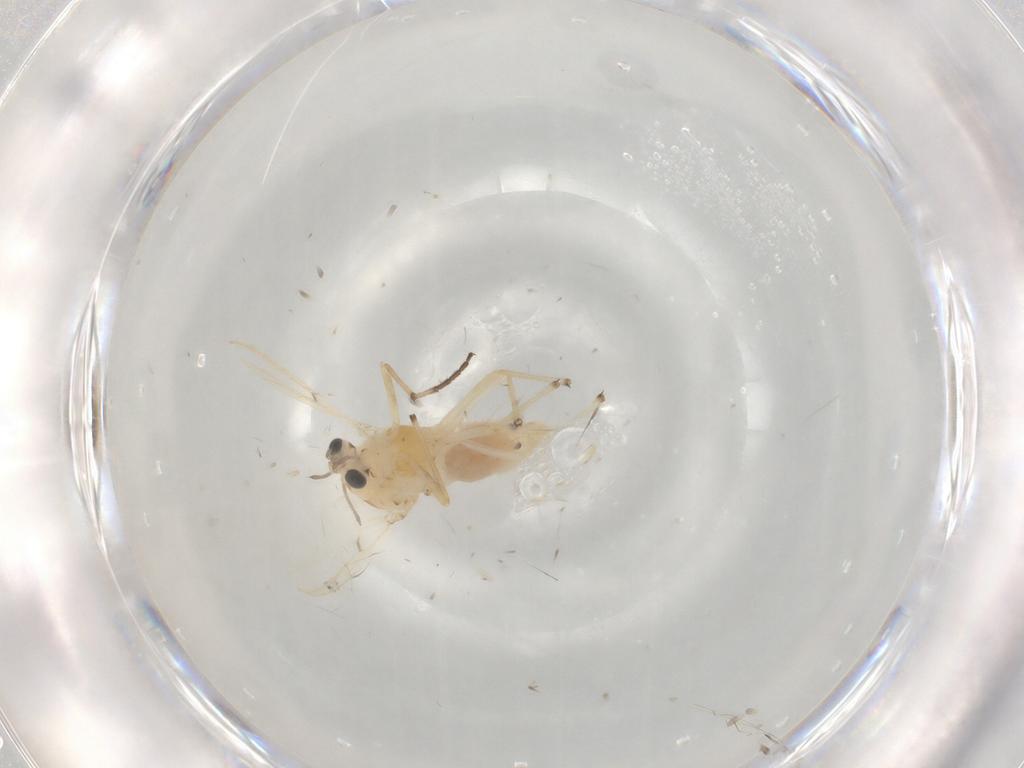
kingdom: Animalia
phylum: Arthropoda
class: Insecta
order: Diptera
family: Chironomidae
